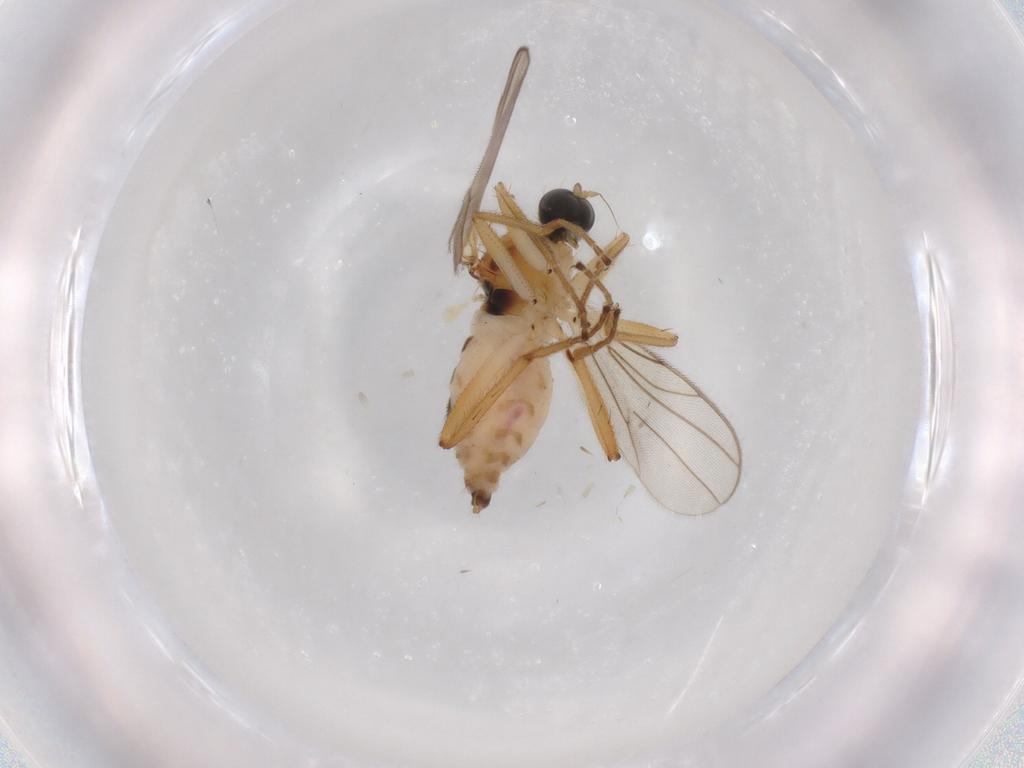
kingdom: Animalia
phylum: Arthropoda
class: Insecta
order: Diptera
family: Hybotidae
